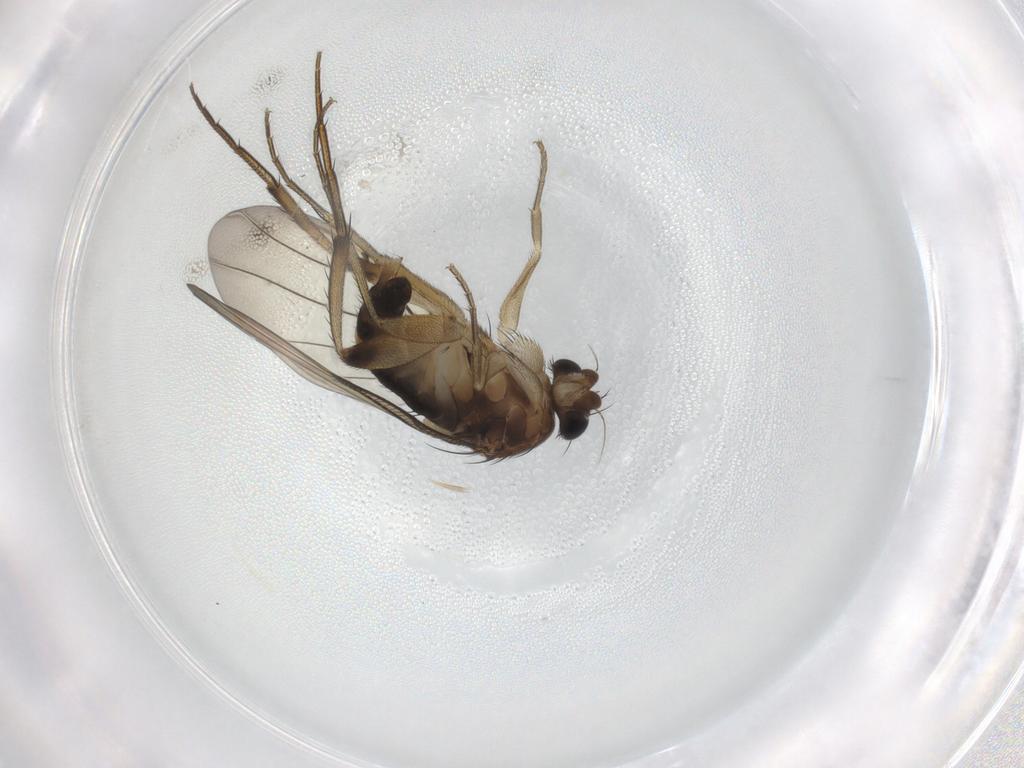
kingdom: Animalia
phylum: Arthropoda
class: Insecta
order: Diptera
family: Phoridae
